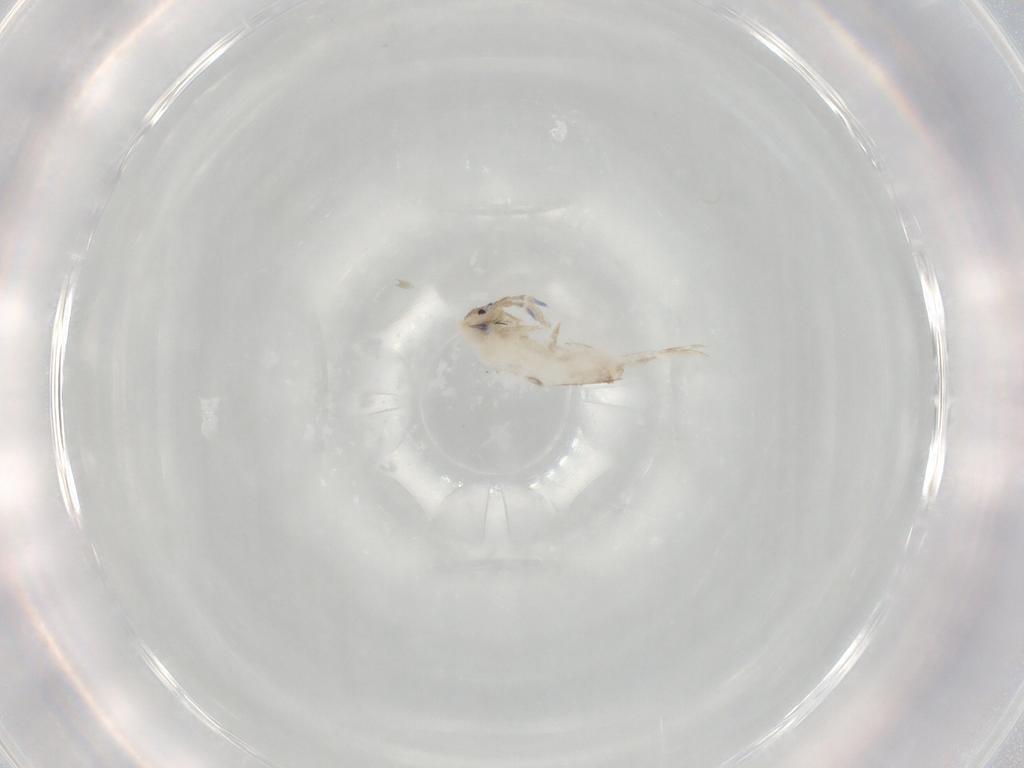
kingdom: Animalia
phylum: Arthropoda
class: Collembola
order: Entomobryomorpha
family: Entomobryidae
